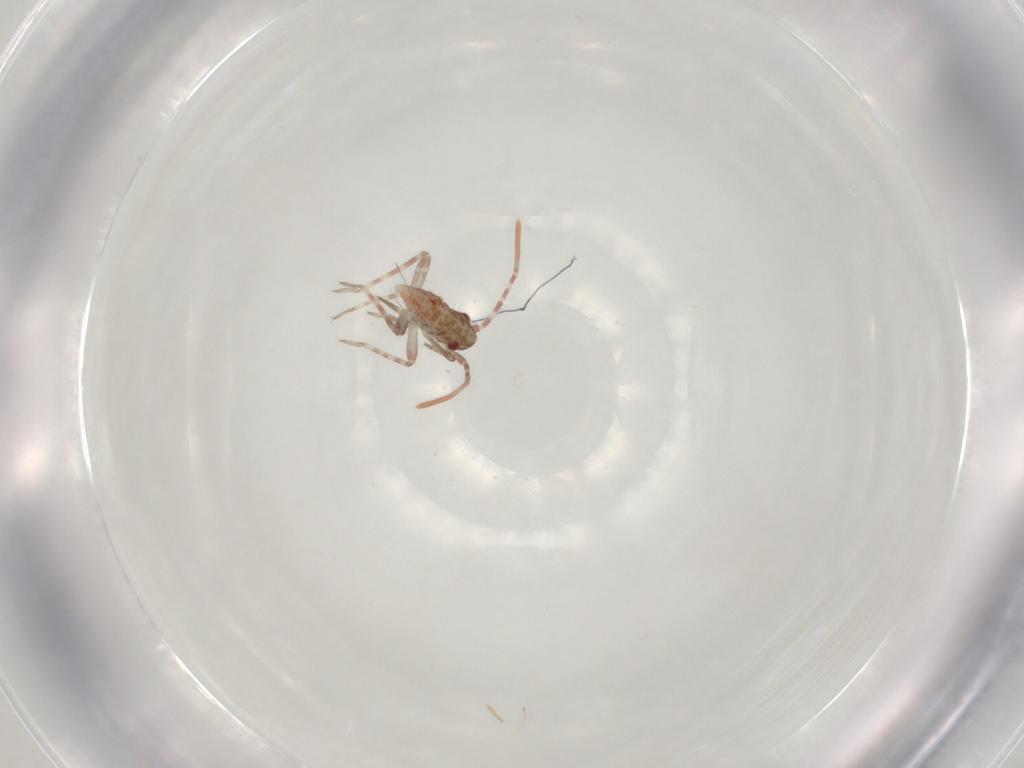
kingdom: Animalia
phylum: Arthropoda
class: Insecta
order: Hemiptera
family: Miridae
